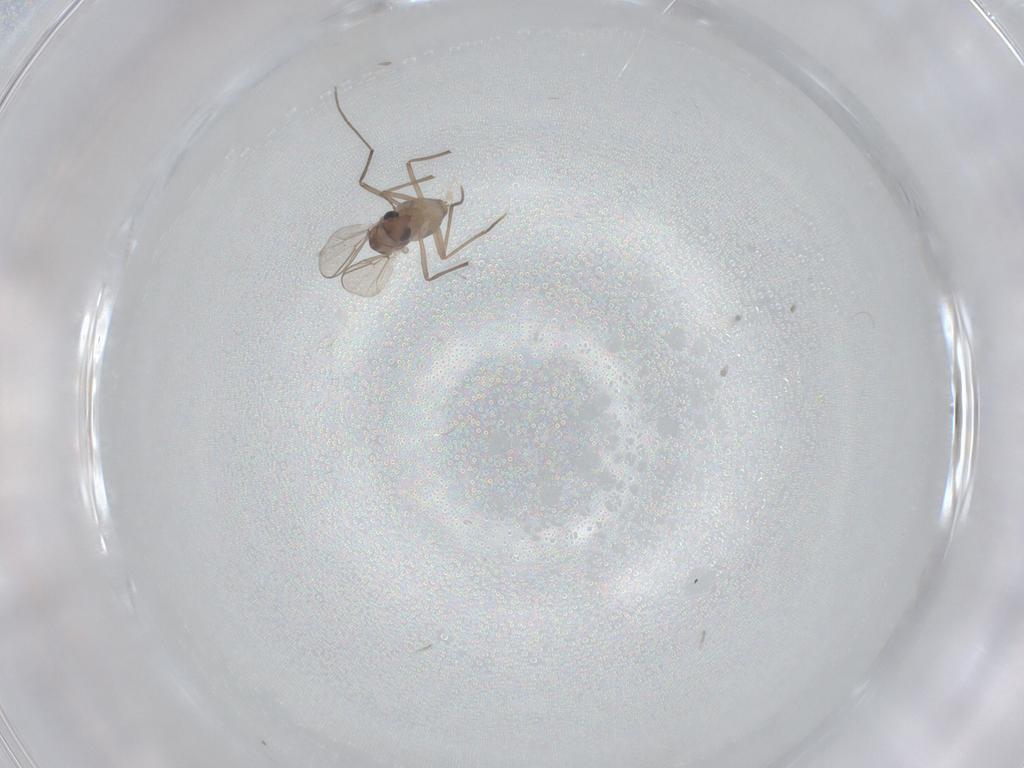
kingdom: Animalia
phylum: Arthropoda
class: Insecta
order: Diptera
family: Chironomidae
